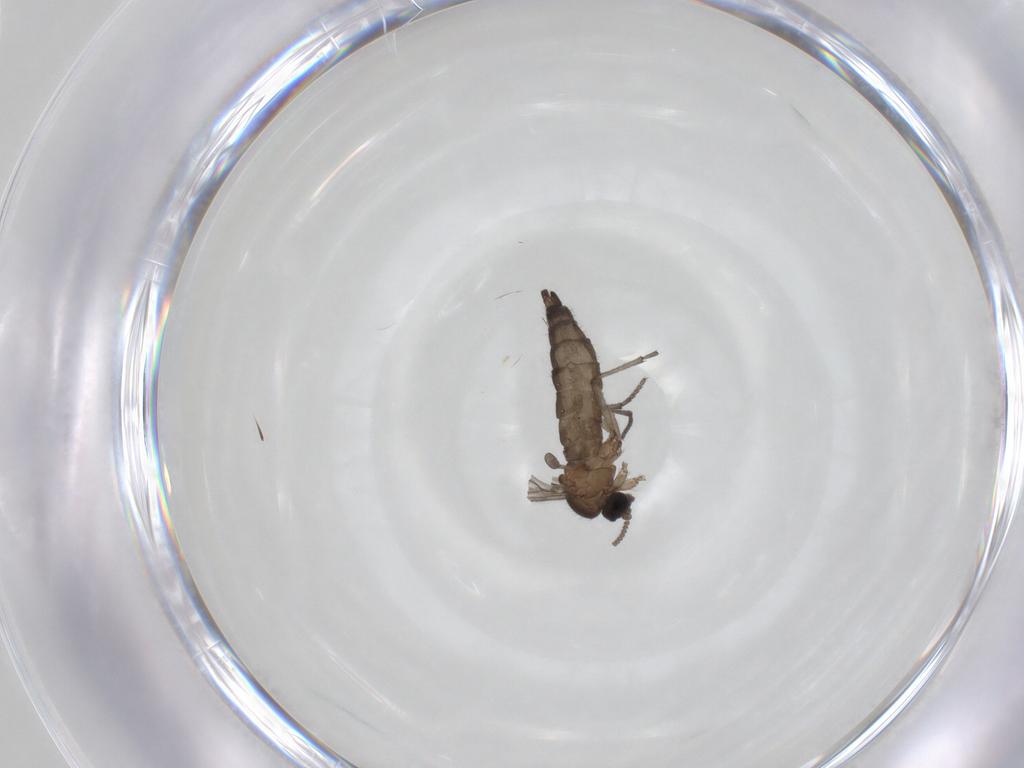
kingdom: Animalia
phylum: Arthropoda
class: Insecta
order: Diptera
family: Sciaridae
